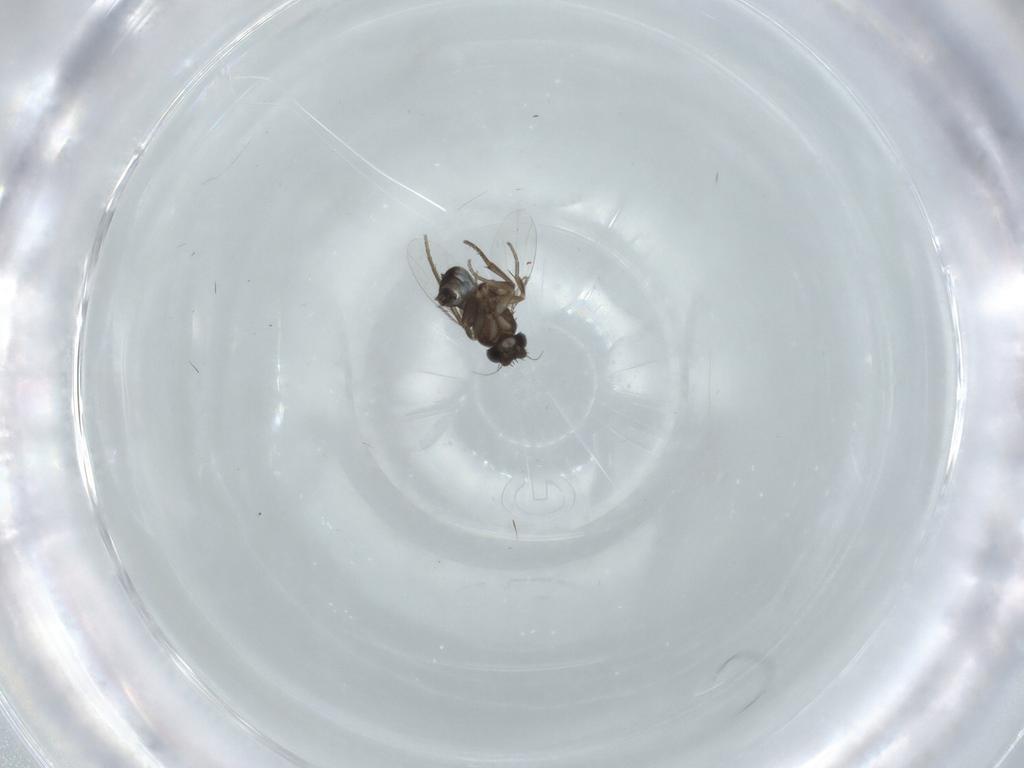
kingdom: Animalia
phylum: Arthropoda
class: Insecta
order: Diptera
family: Phoridae
